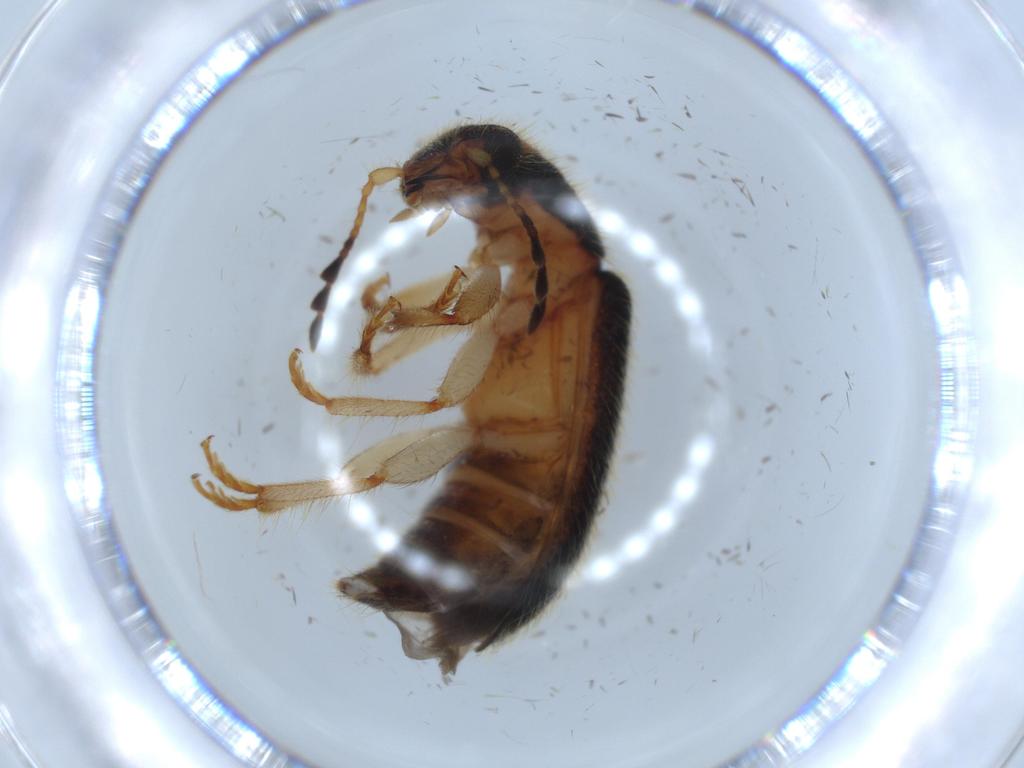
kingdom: Animalia
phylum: Arthropoda
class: Insecta
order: Coleoptera
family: Cleridae
